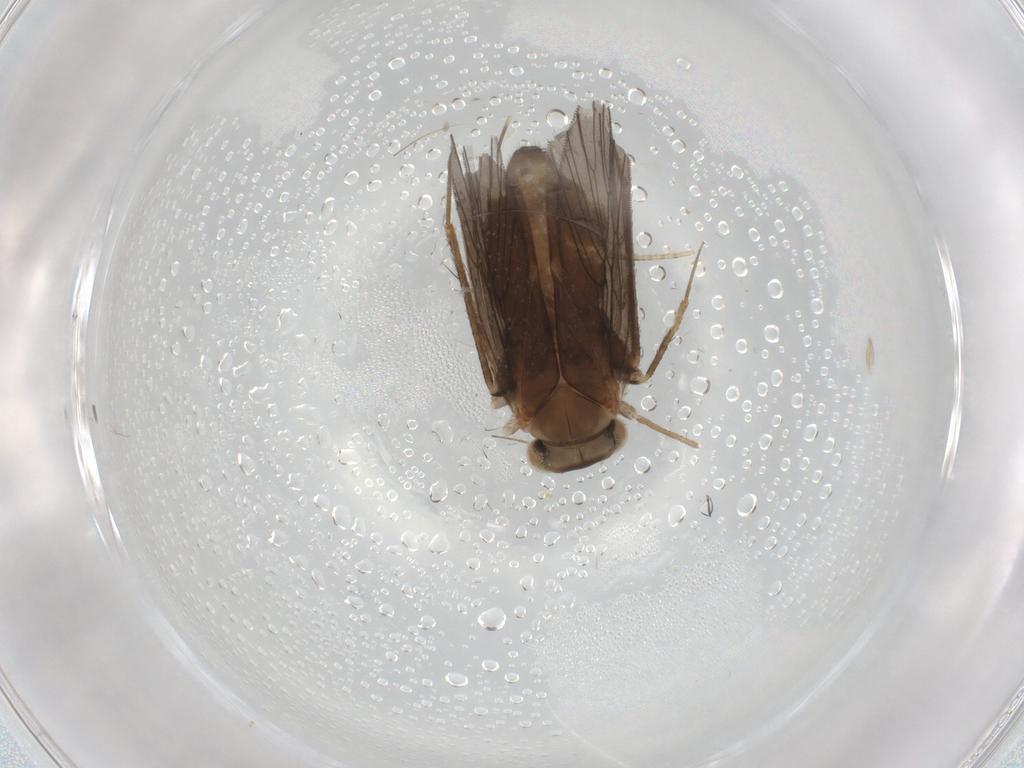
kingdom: Animalia
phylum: Arthropoda
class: Insecta
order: Psocodea
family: Lepidopsocidae
